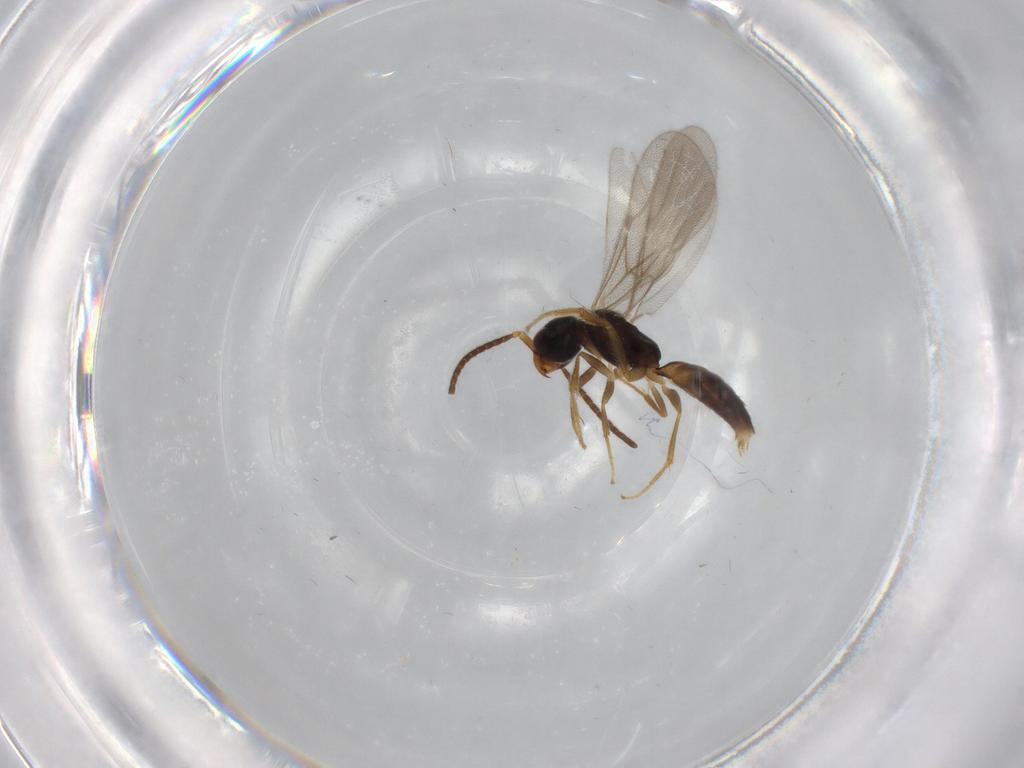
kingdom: Animalia
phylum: Arthropoda
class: Insecta
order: Hymenoptera
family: Bethylidae
